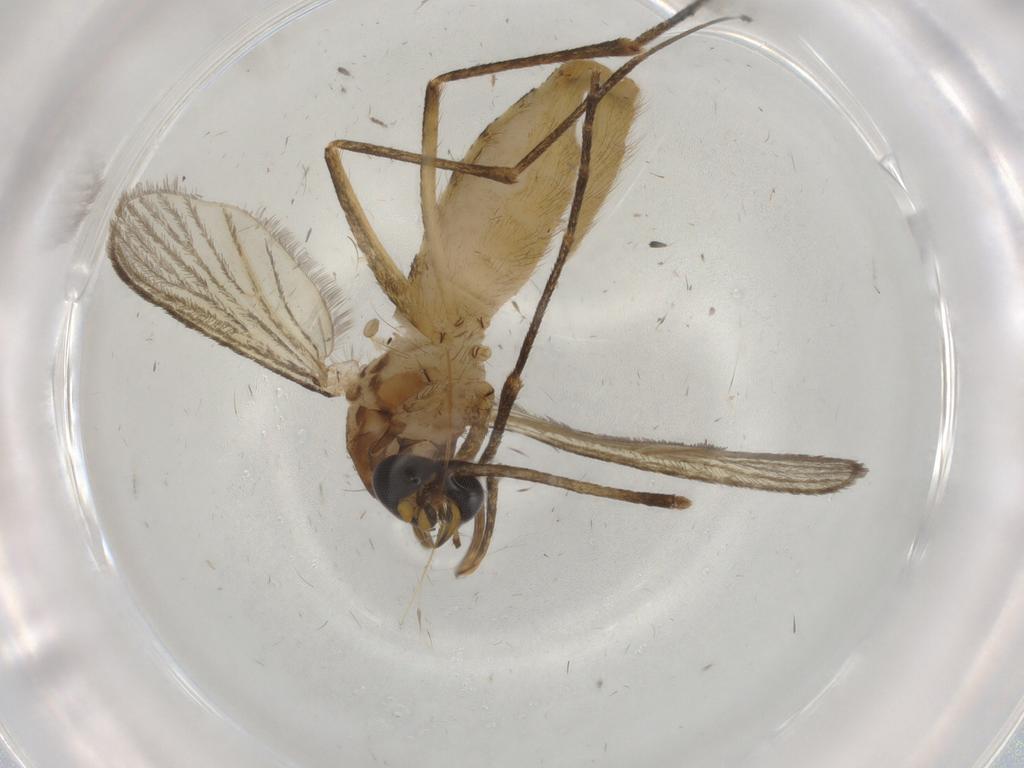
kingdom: Animalia
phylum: Arthropoda
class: Insecta
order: Diptera
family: Culicidae
